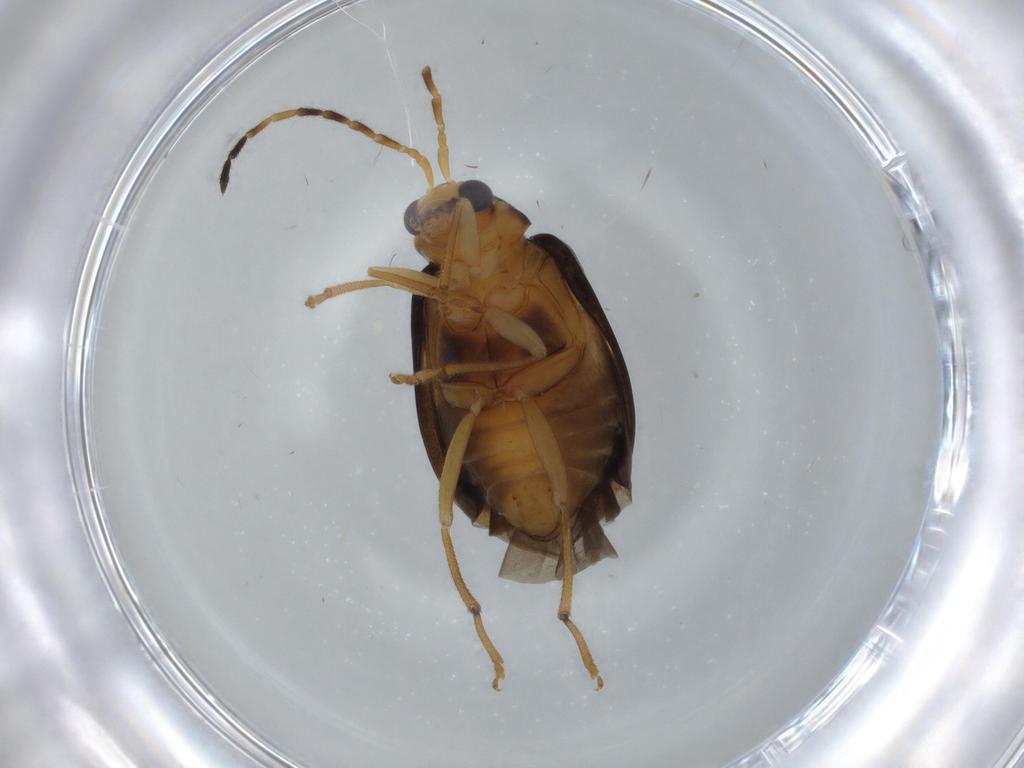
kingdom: Animalia
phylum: Arthropoda
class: Insecta
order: Coleoptera
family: Chrysomelidae
